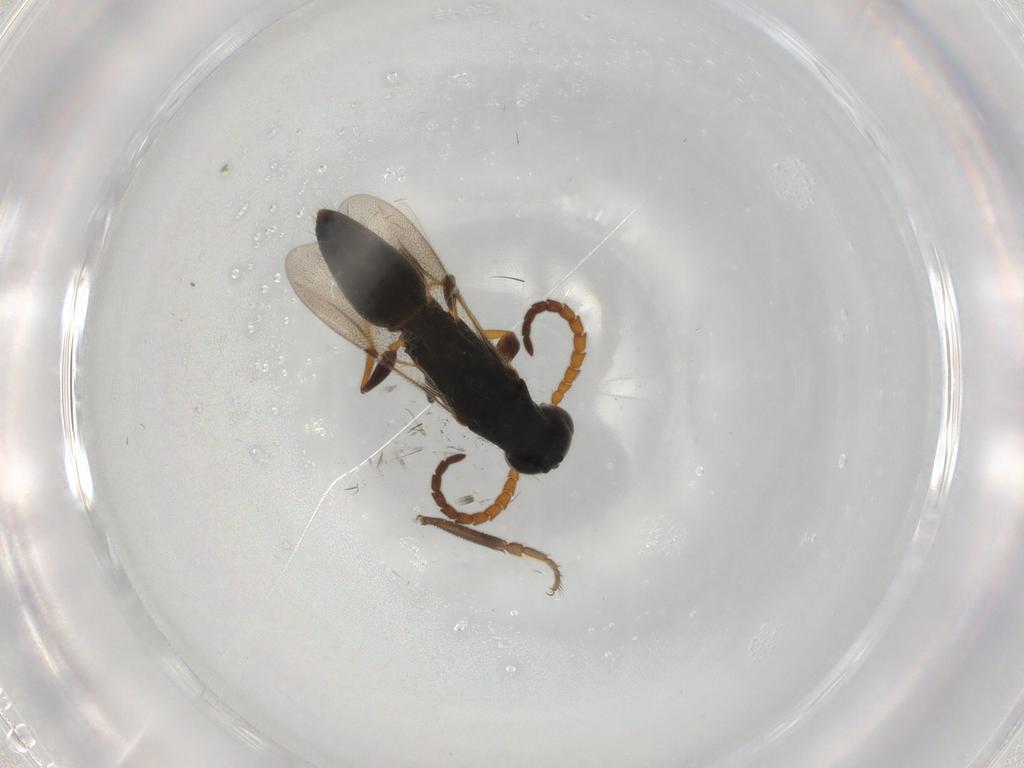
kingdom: Animalia
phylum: Arthropoda
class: Insecta
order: Hymenoptera
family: Bethylidae
